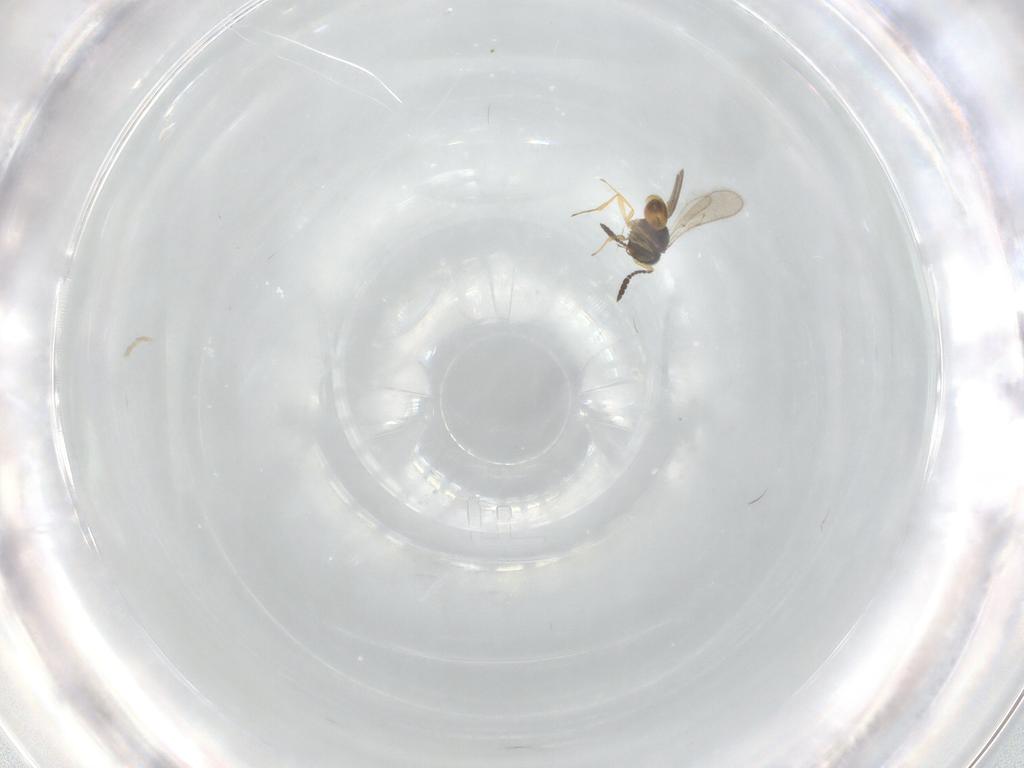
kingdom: Animalia
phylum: Arthropoda
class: Insecta
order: Hymenoptera
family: Scelionidae
